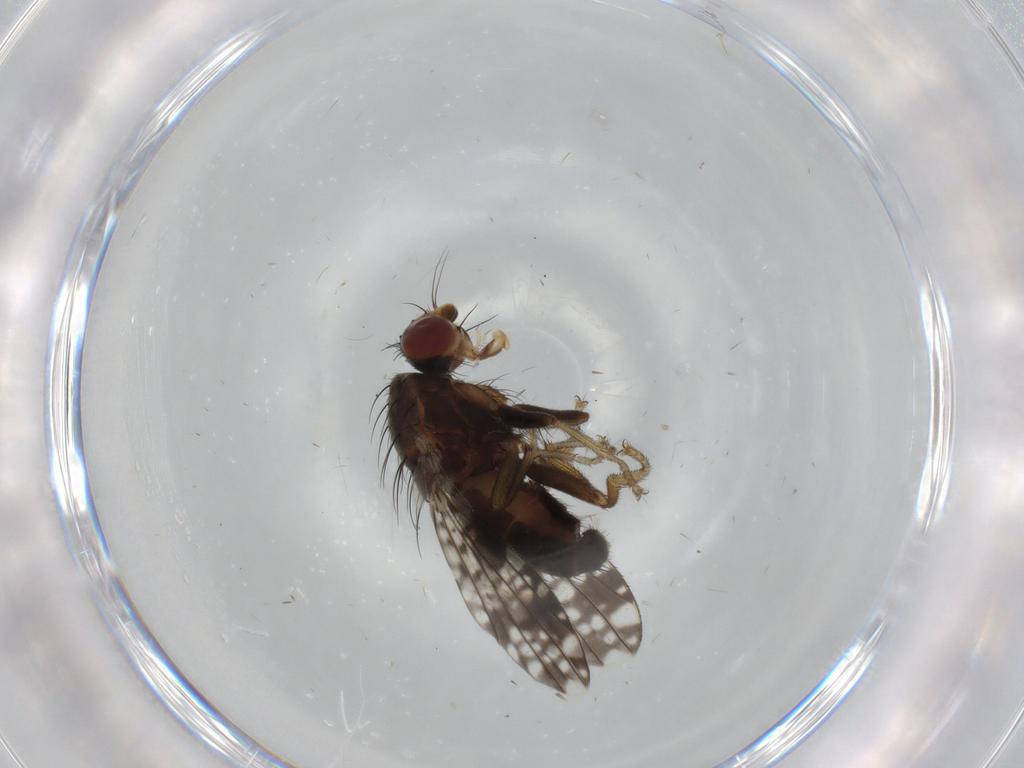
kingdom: Animalia
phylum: Arthropoda
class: Insecta
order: Diptera
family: Tephritidae
